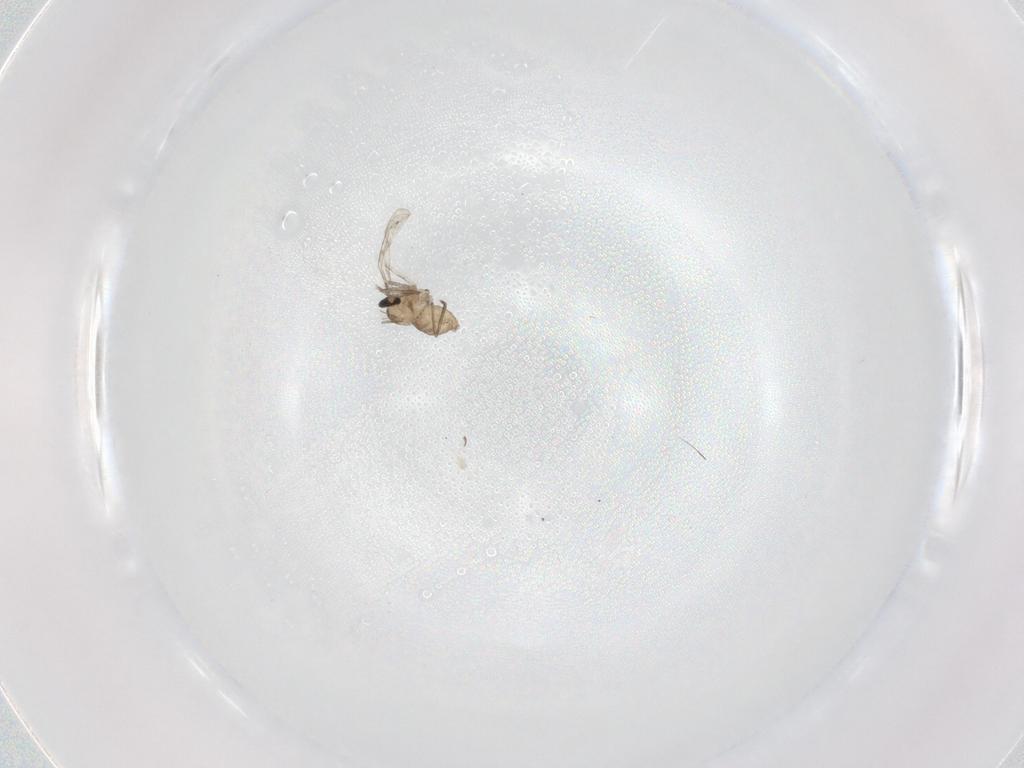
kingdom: Animalia
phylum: Arthropoda
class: Insecta
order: Diptera
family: Cecidomyiidae
